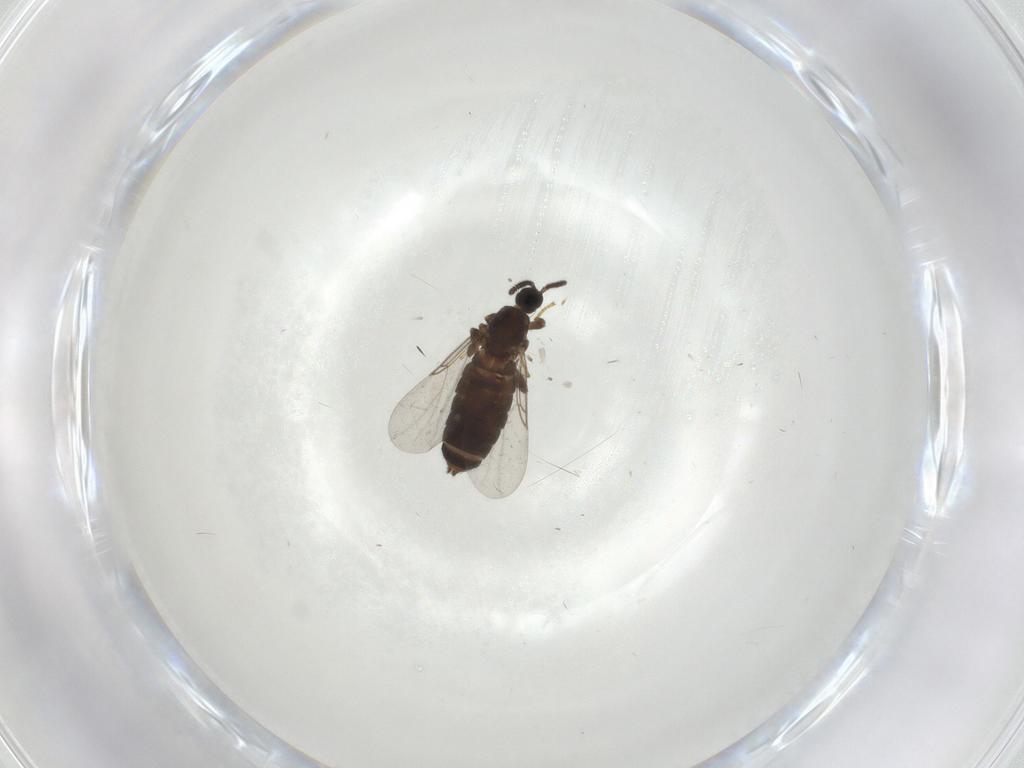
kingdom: Animalia
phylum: Arthropoda
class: Insecta
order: Diptera
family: Scatopsidae
